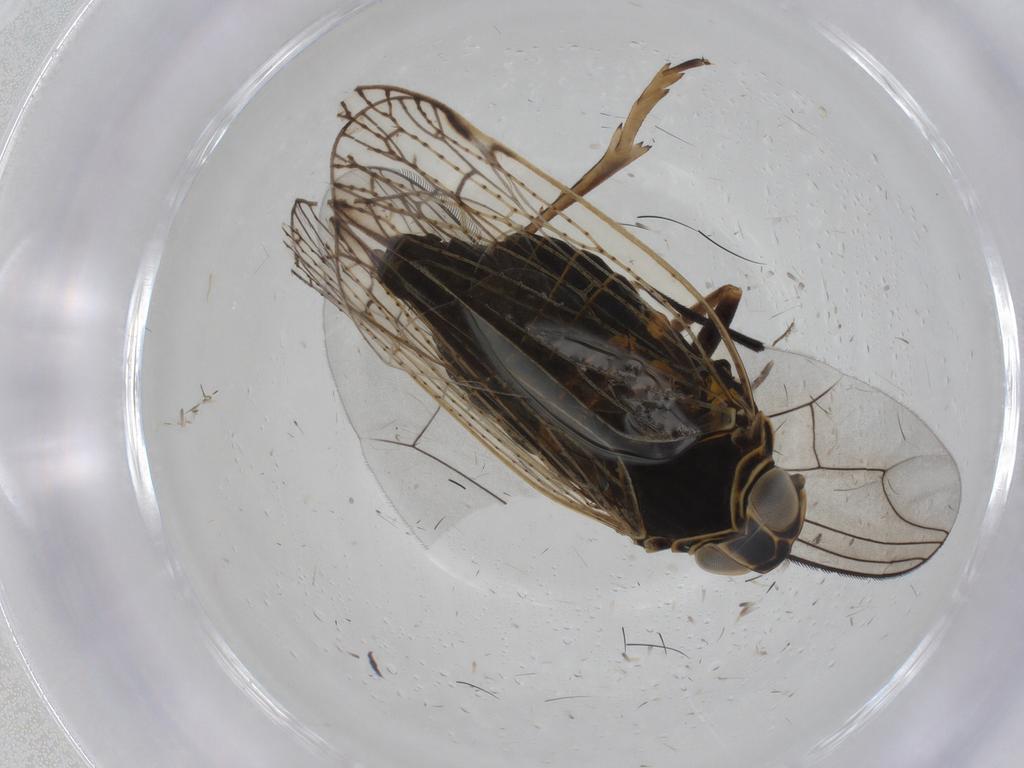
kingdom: Animalia
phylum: Arthropoda
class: Insecta
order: Hemiptera
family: Cixiidae
